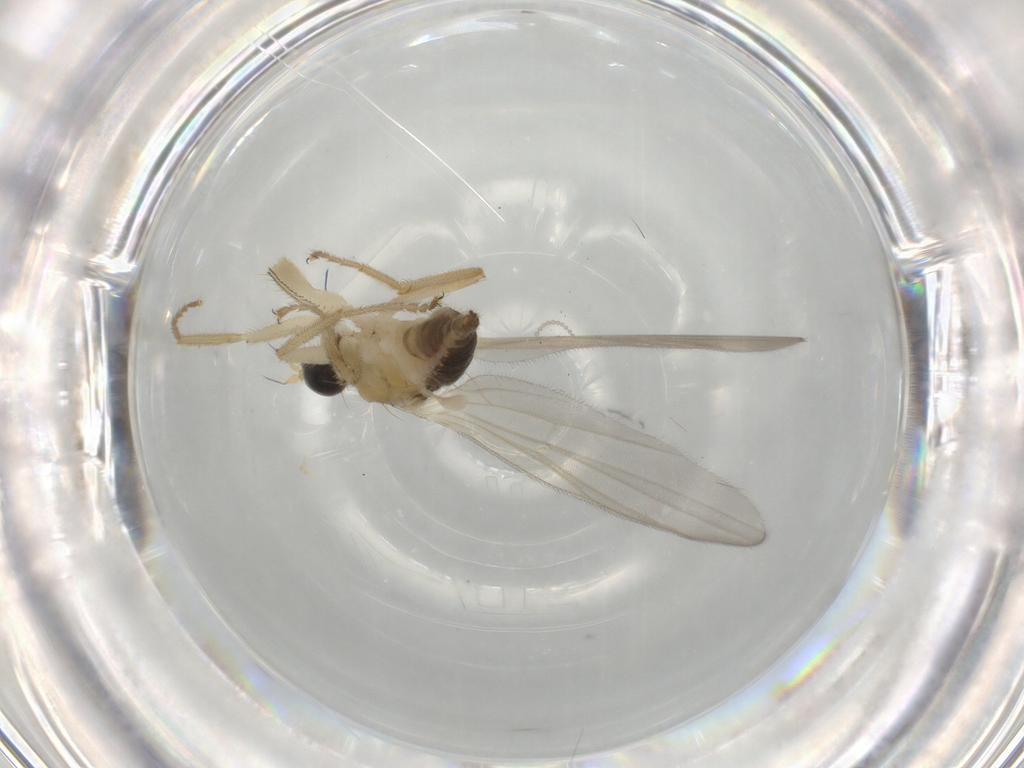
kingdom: Animalia
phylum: Arthropoda
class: Insecta
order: Diptera
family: Hybotidae
